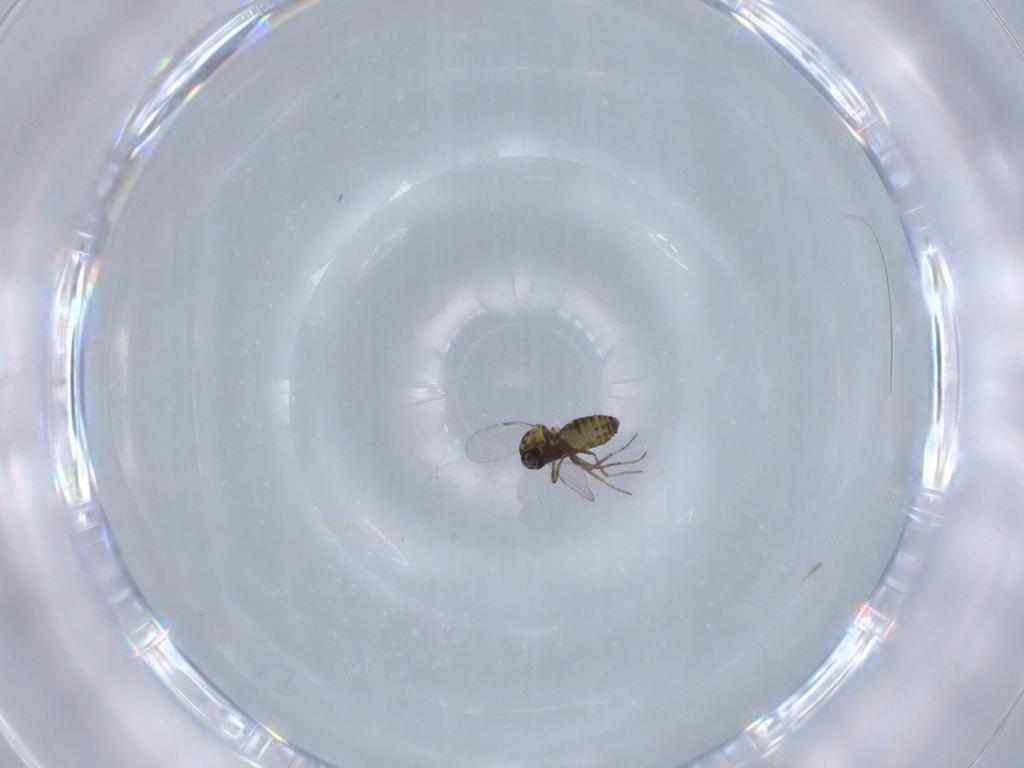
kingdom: Animalia
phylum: Arthropoda
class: Insecta
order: Diptera
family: Ceratopogonidae
